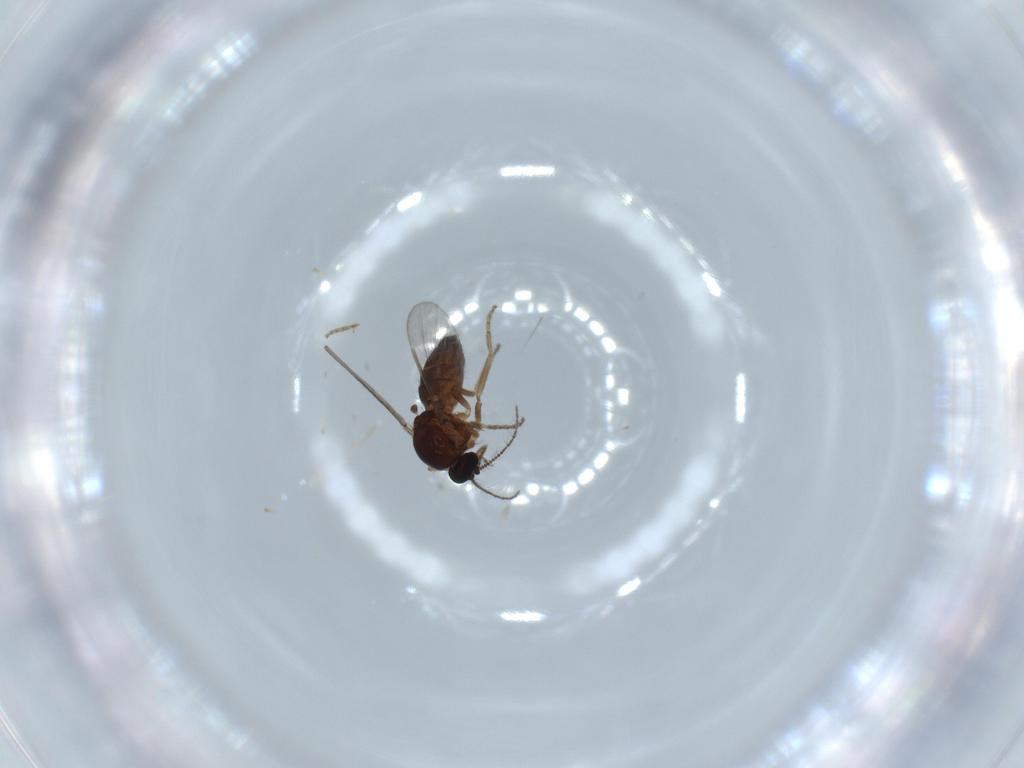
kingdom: Animalia
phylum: Arthropoda
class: Insecta
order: Diptera
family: Ceratopogonidae
